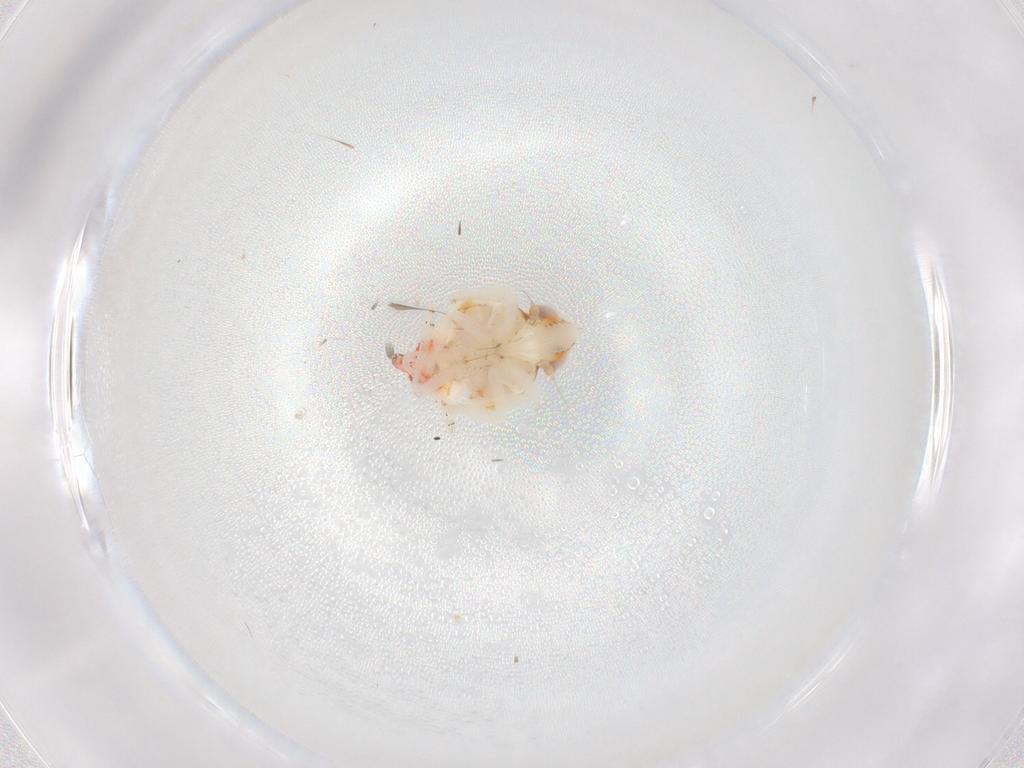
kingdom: Animalia
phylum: Arthropoda
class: Insecta
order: Hemiptera
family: Nogodinidae
